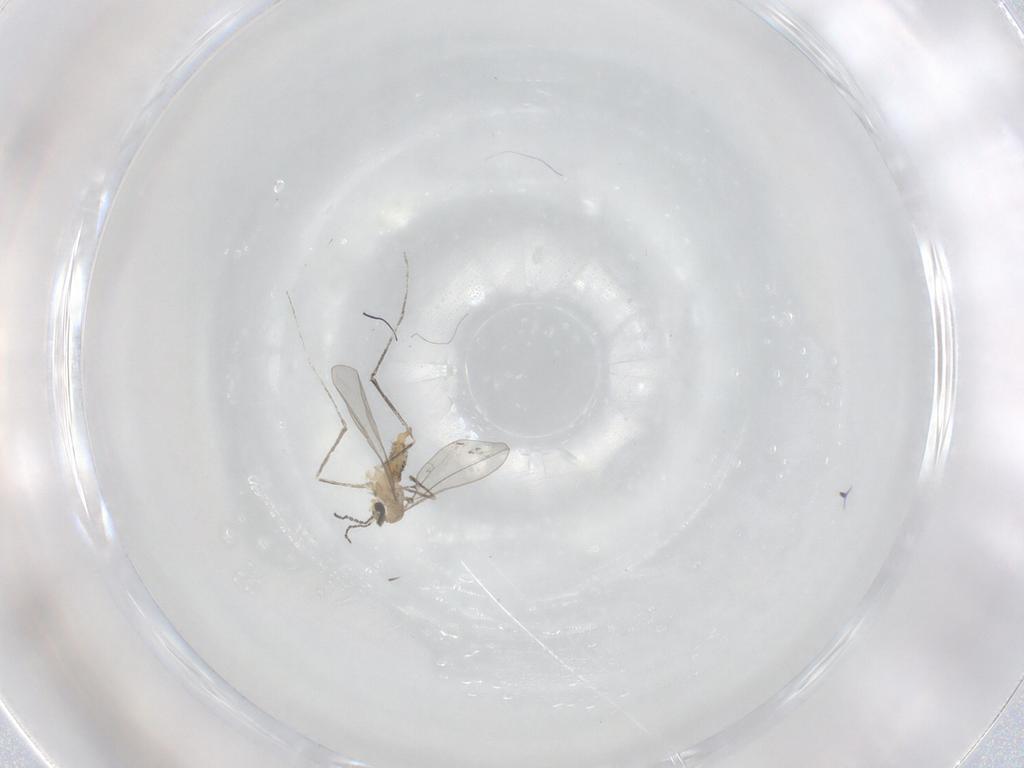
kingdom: Animalia
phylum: Arthropoda
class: Insecta
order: Diptera
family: Cecidomyiidae
